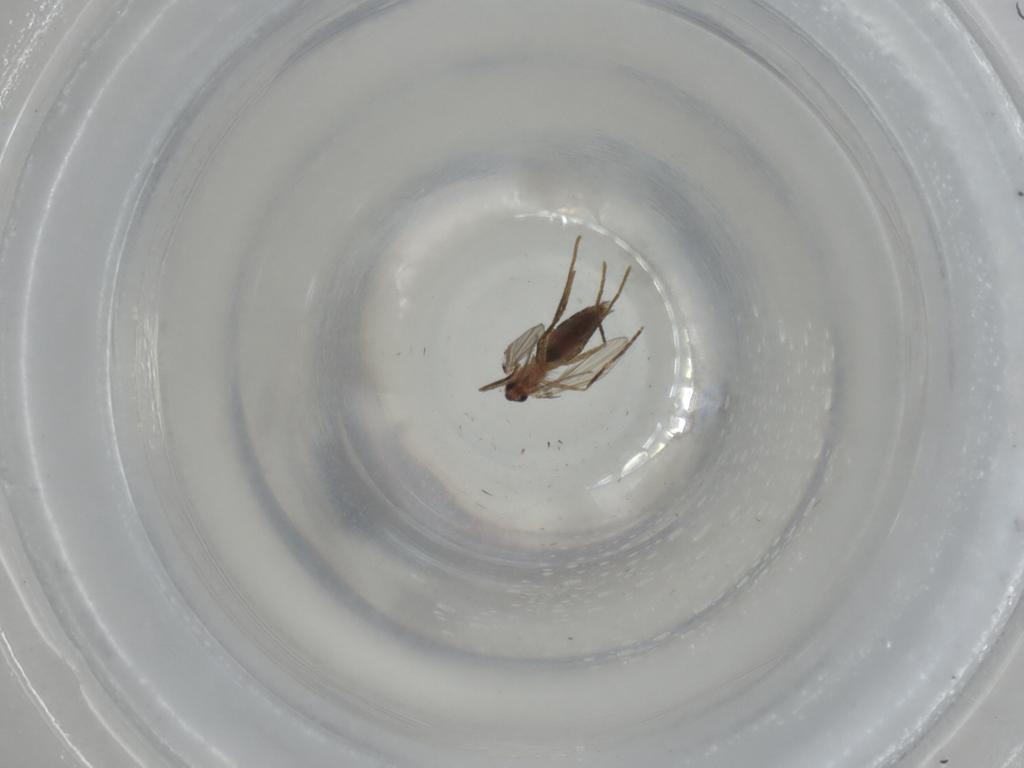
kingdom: Animalia
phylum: Arthropoda
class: Insecta
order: Diptera
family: Psychodidae
